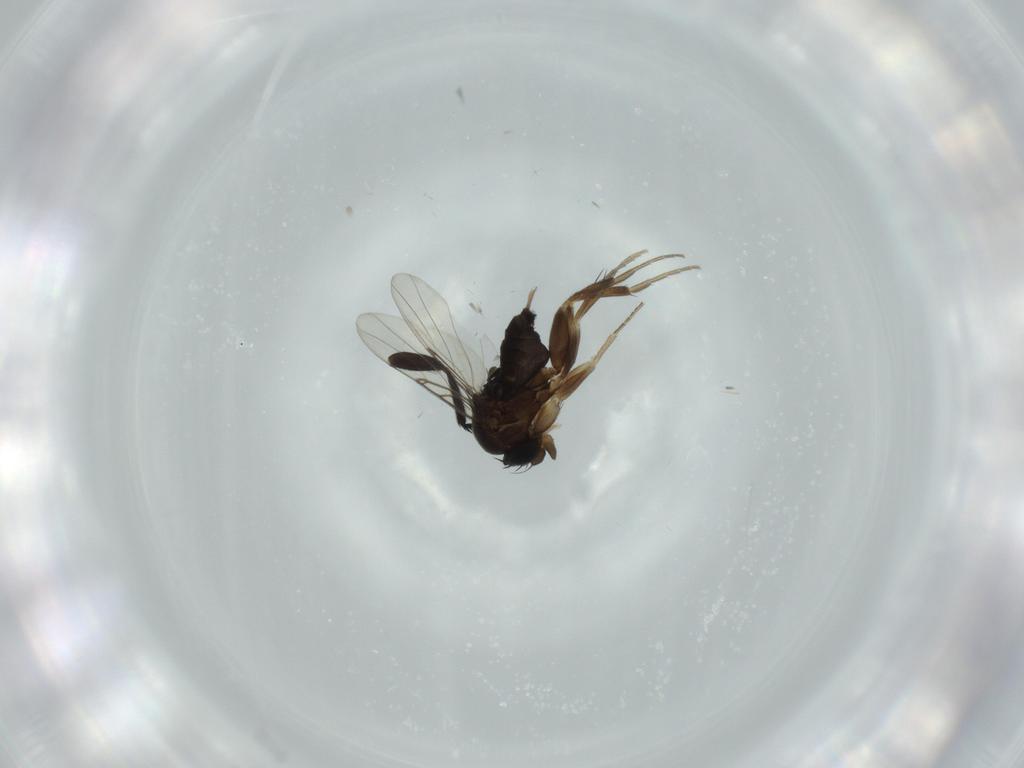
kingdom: Animalia
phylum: Arthropoda
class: Insecta
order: Diptera
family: Phoridae
